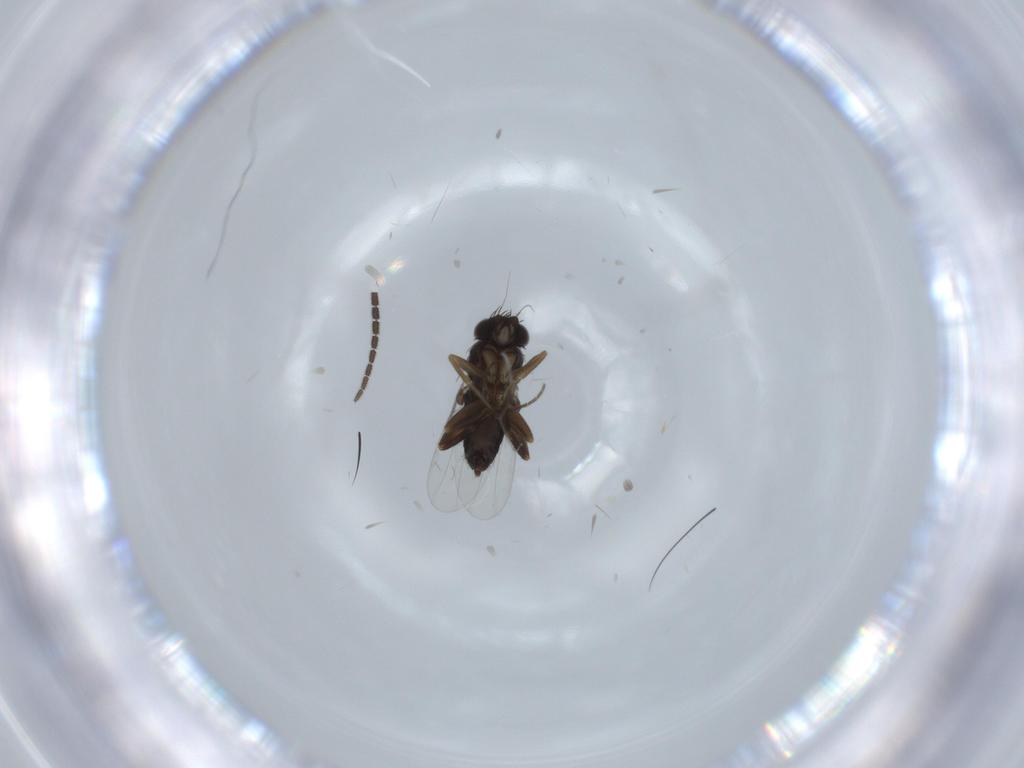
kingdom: Animalia
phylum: Arthropoda
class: Insecta
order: Diptera
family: Phoridae
